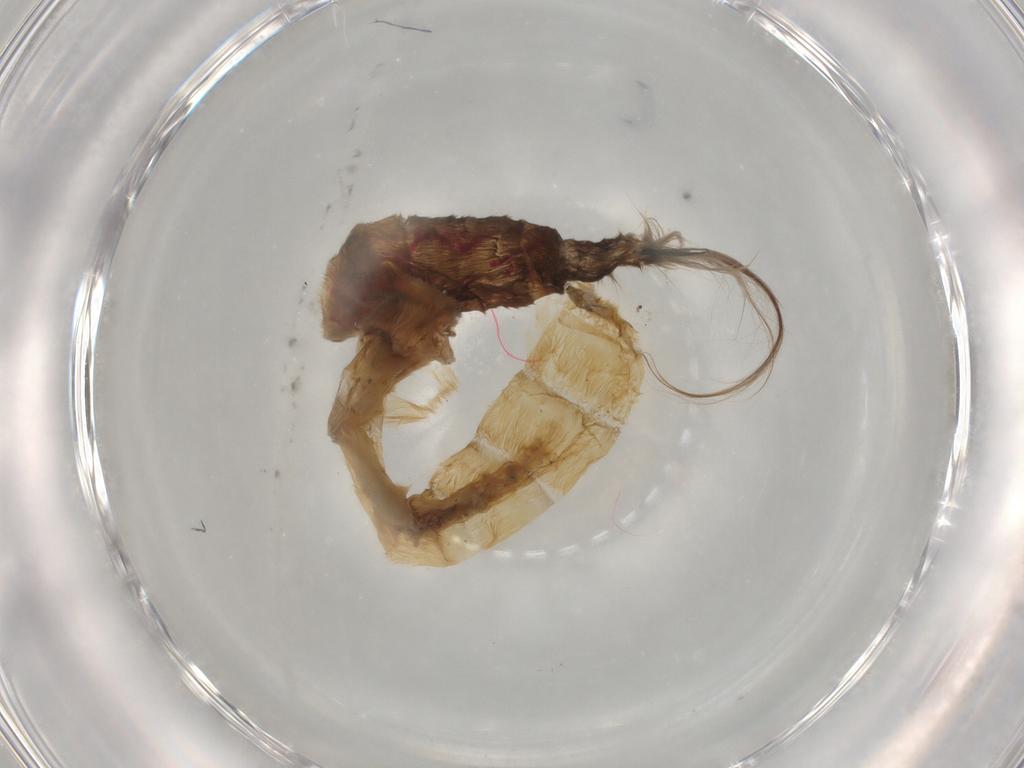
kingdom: Animalia
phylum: Arthropoda
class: Insecta
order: Diptera
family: Limoniidae
